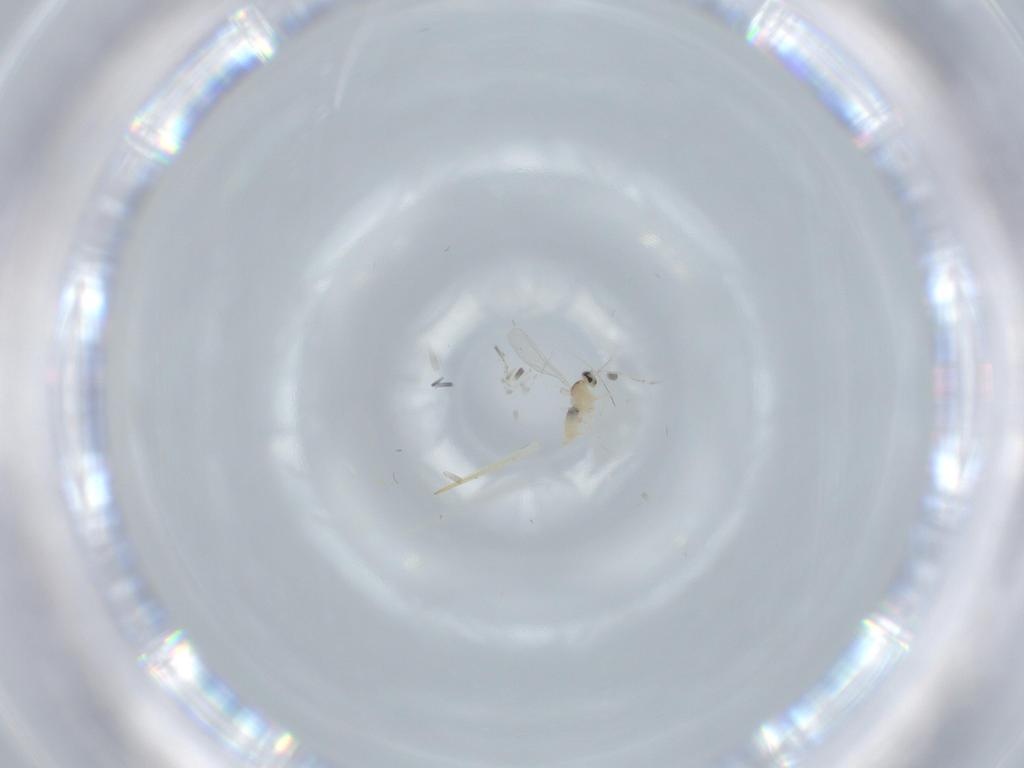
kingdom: Animalia
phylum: Arthropoda
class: Insecta
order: Diptera
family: Cecidomyiidae
